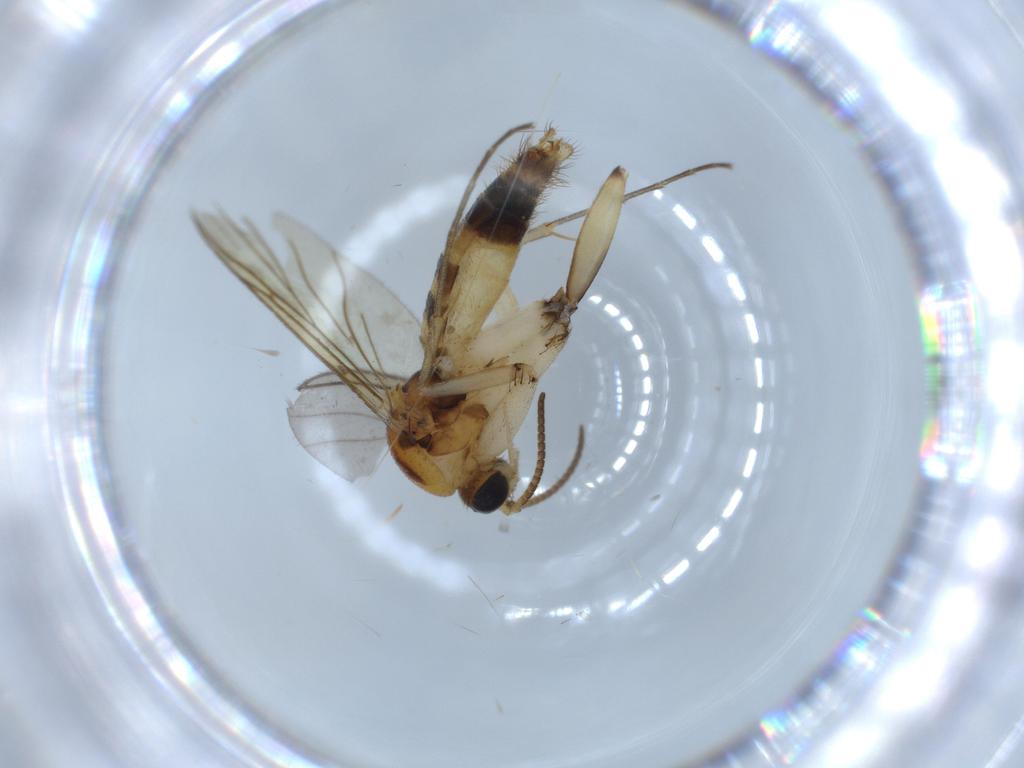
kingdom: Animalia
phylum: Arthropoda
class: Insecta
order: Diptera
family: Mycetophilidae
